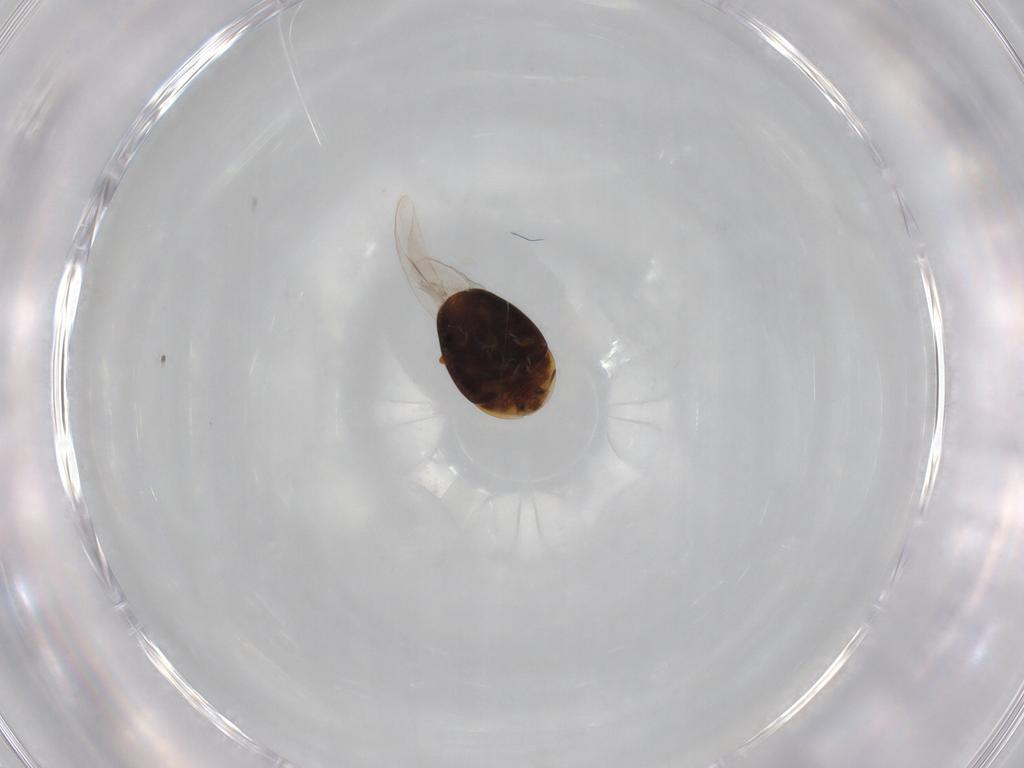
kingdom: Animalia
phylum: Arthropoda
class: Insecta
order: Coleoptera
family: Corylophidae
